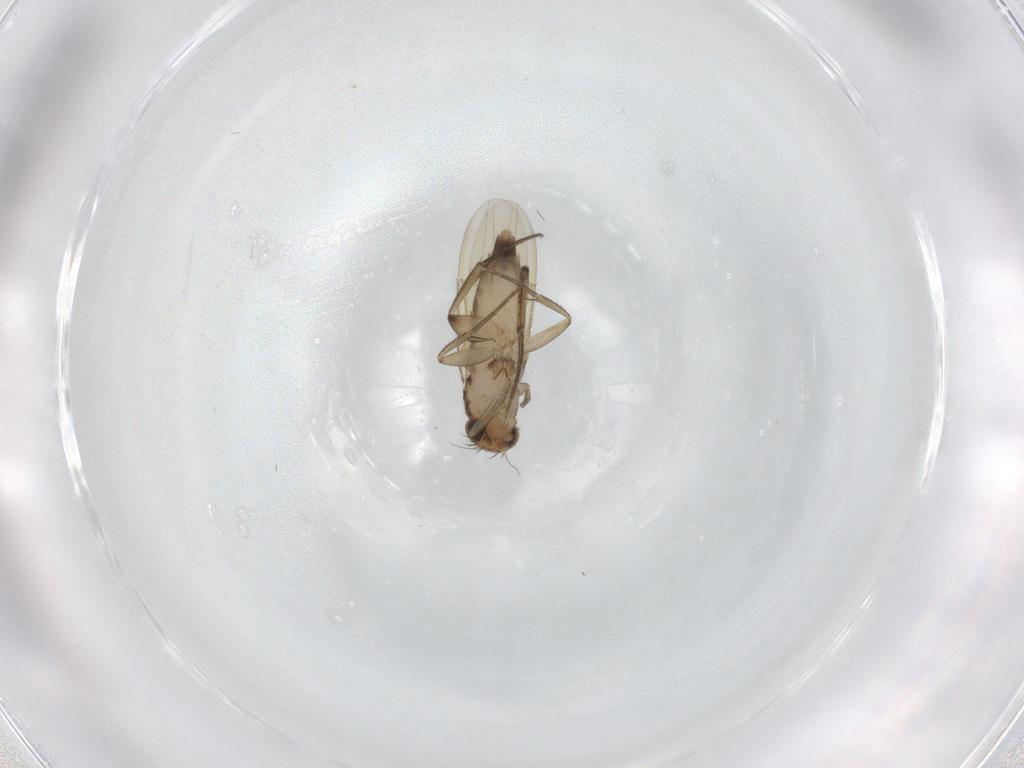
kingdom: Animalia
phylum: Arthropoda
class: Insecta
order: Diptera
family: Phoridae
